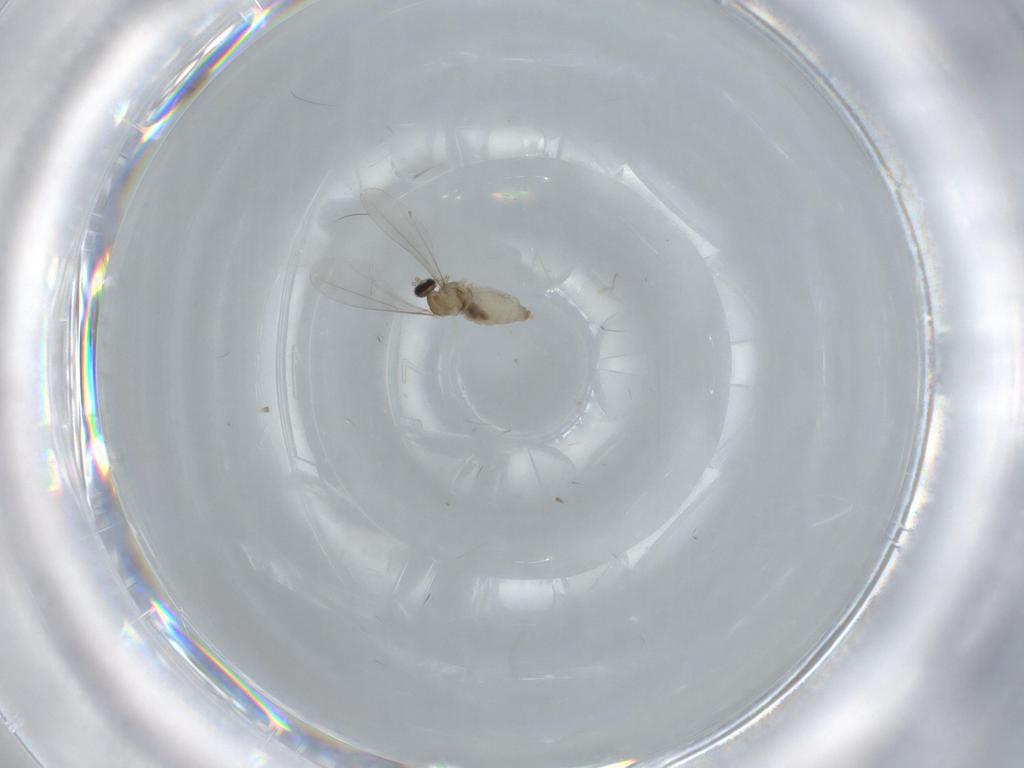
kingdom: Animalia
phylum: Arthropoda
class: Insecta
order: Diptera
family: Cecidomyiidae
